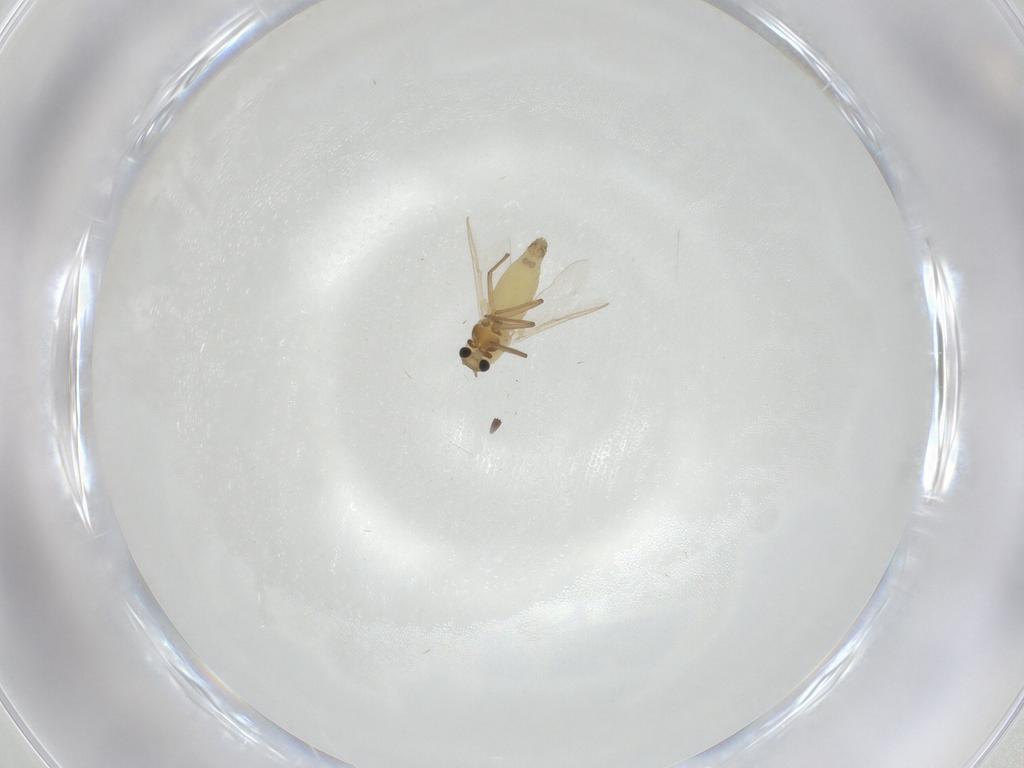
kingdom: Animalia
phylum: Arthropoda
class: Insecta
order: Diptera
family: Chironomidae
